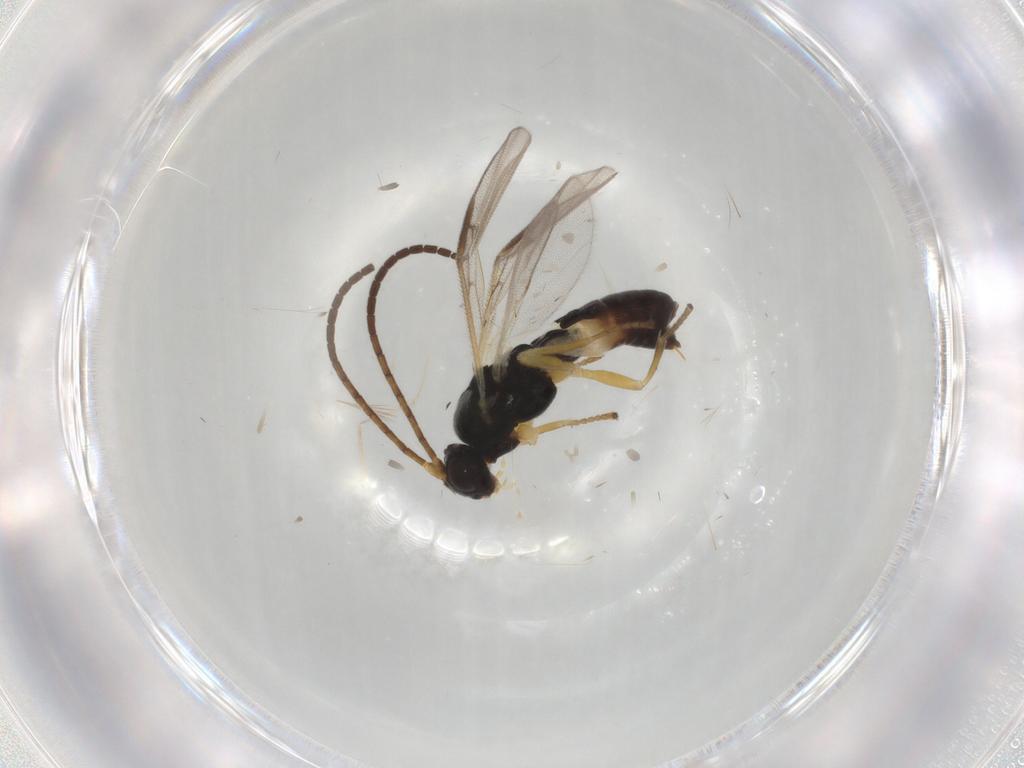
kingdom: Animalia
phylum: Arthropoda
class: Insecta
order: Hymenoptera
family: Braconidae
